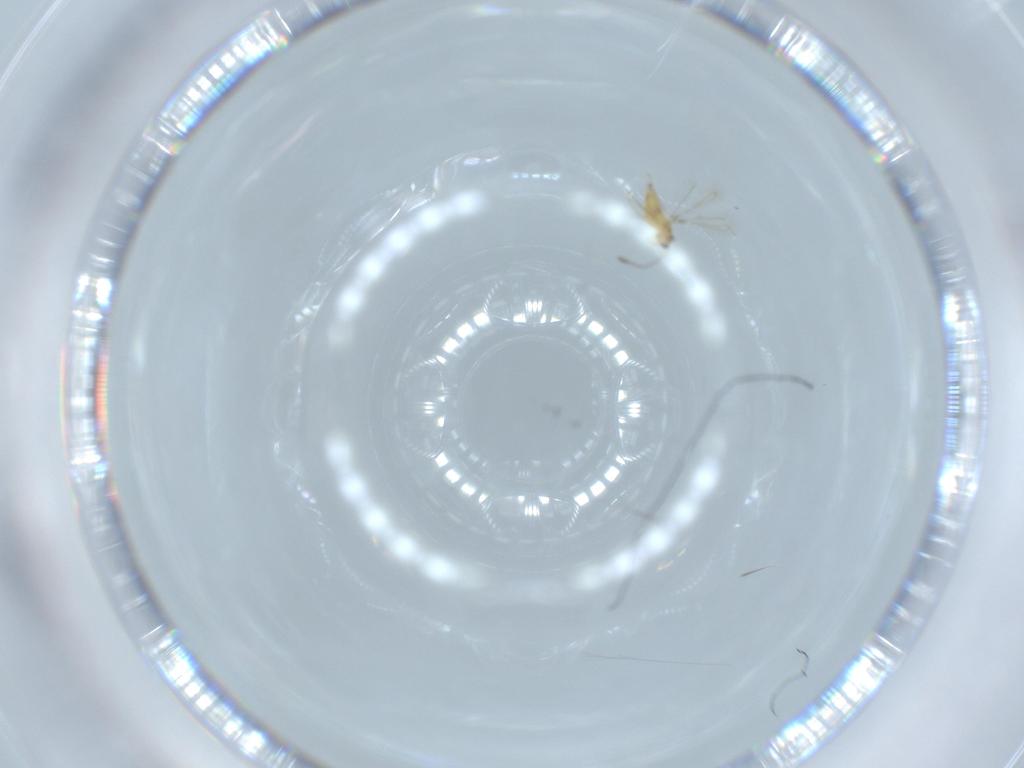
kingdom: Animalia
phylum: Arthropoda
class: Insecta
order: Hymenoptera
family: Mymaridae
